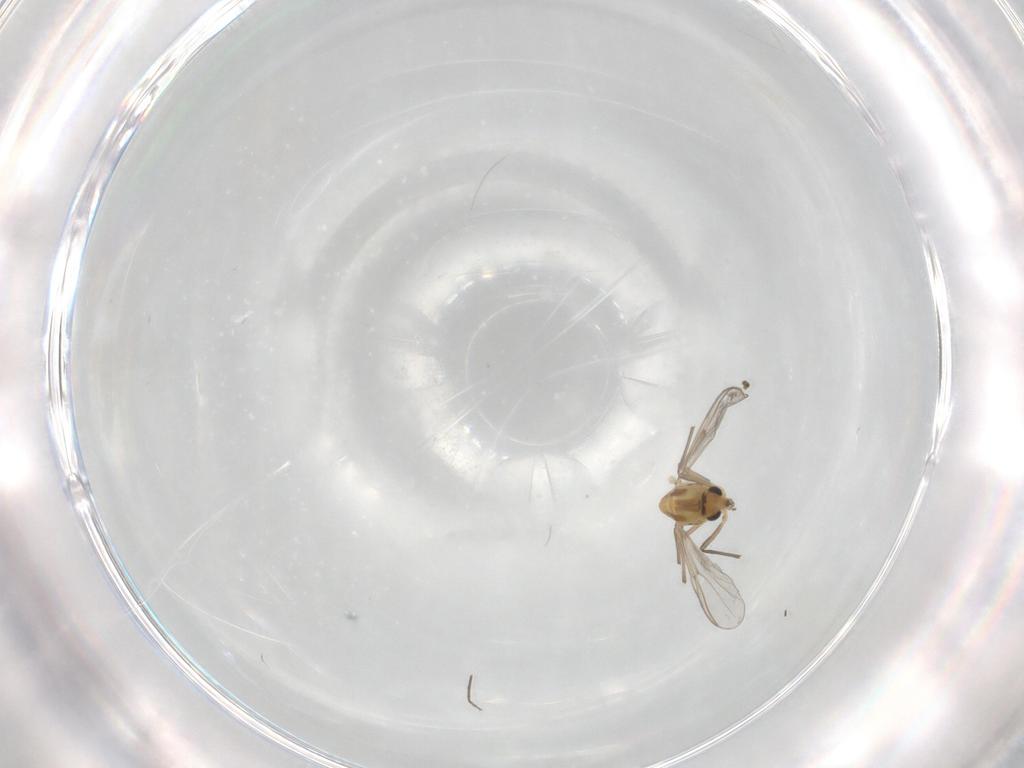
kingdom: Animalia
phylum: Arthropoda
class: Insecta
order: Diptera
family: Chironomidae
